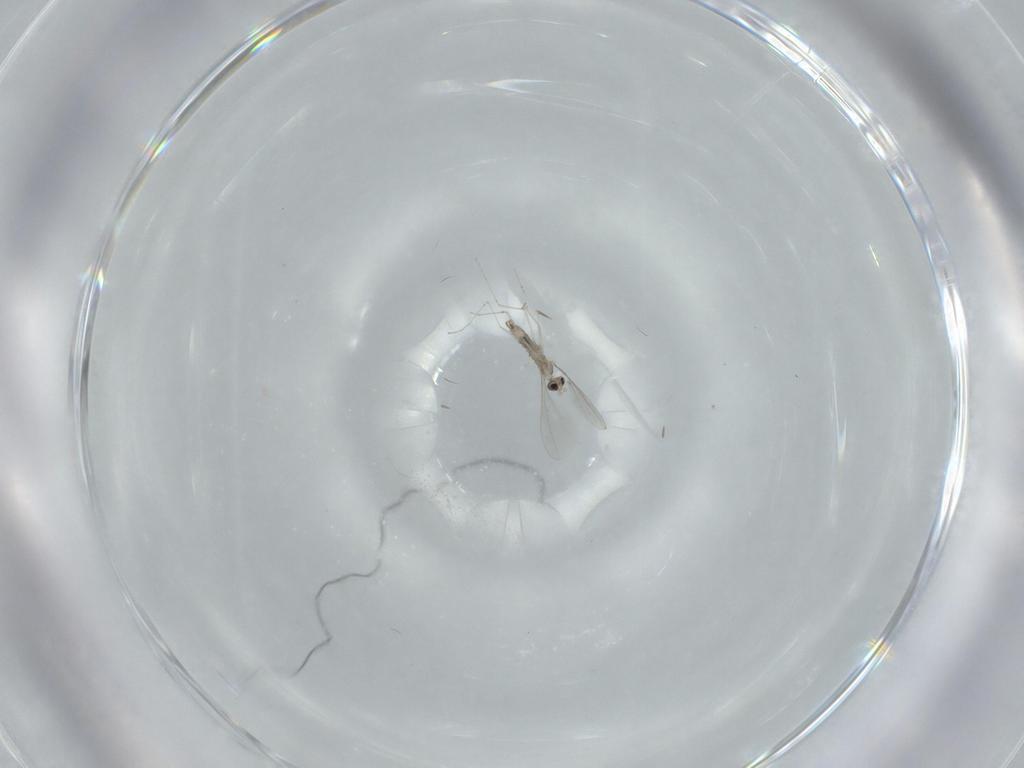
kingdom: Animalia
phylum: Arthropoda
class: Insecta
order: Diptera
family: Cecidomyiidae
